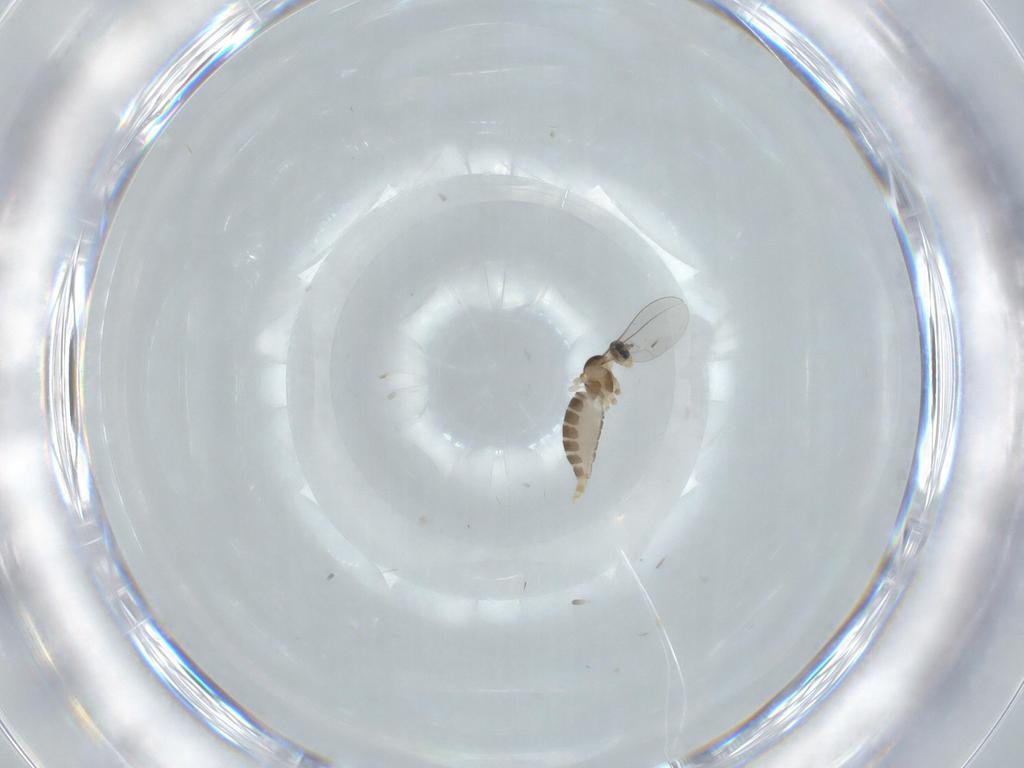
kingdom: Animalia
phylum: Arthropoda
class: Insecta
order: Diptera
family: Cecidomyiidae
